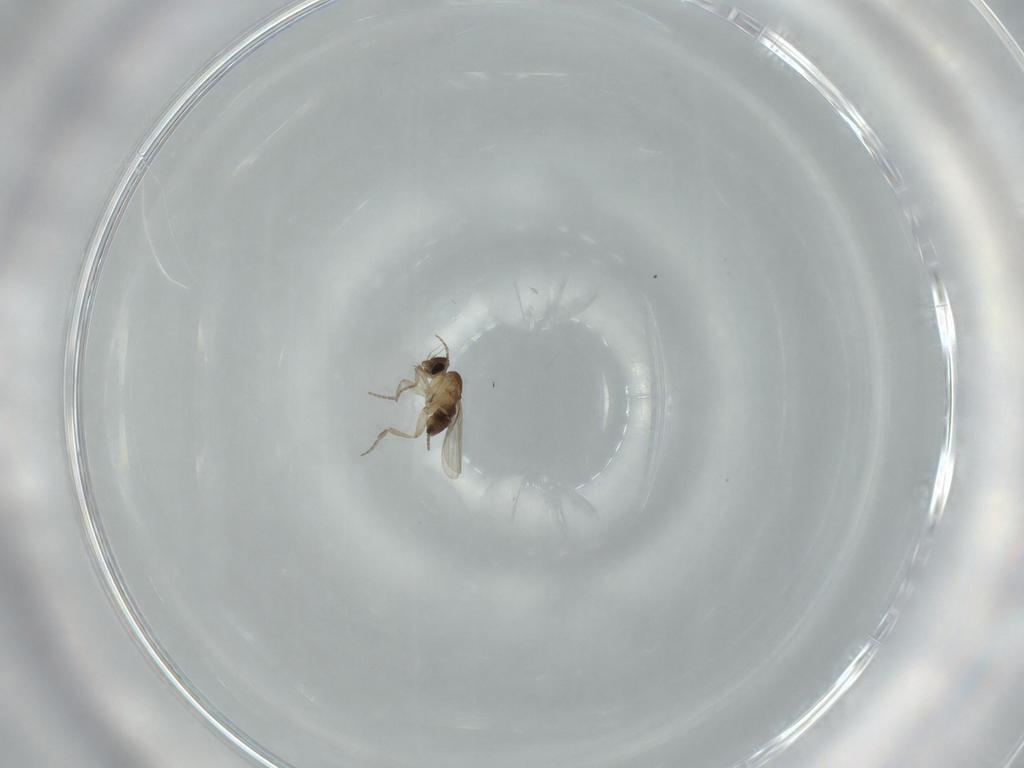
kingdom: Animalia
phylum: Arthropoda
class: Insecta
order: Diptera
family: Phoridae
